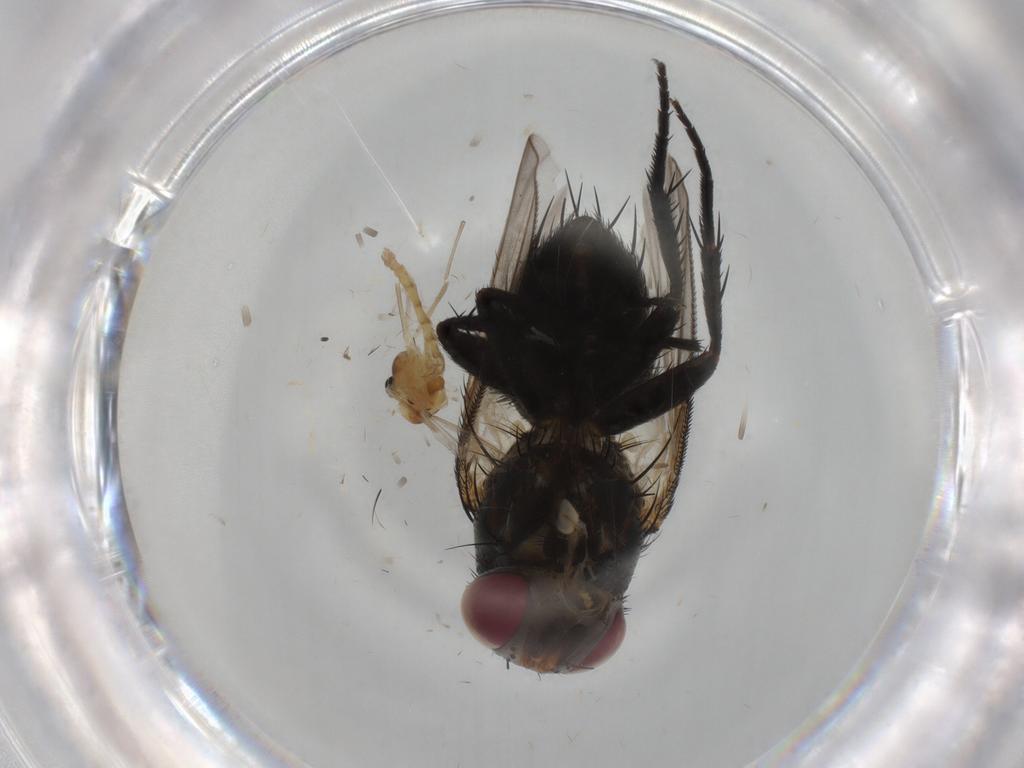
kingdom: Animalia
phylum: Arthropoda
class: Insecta
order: Diptera
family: Tachinidae
